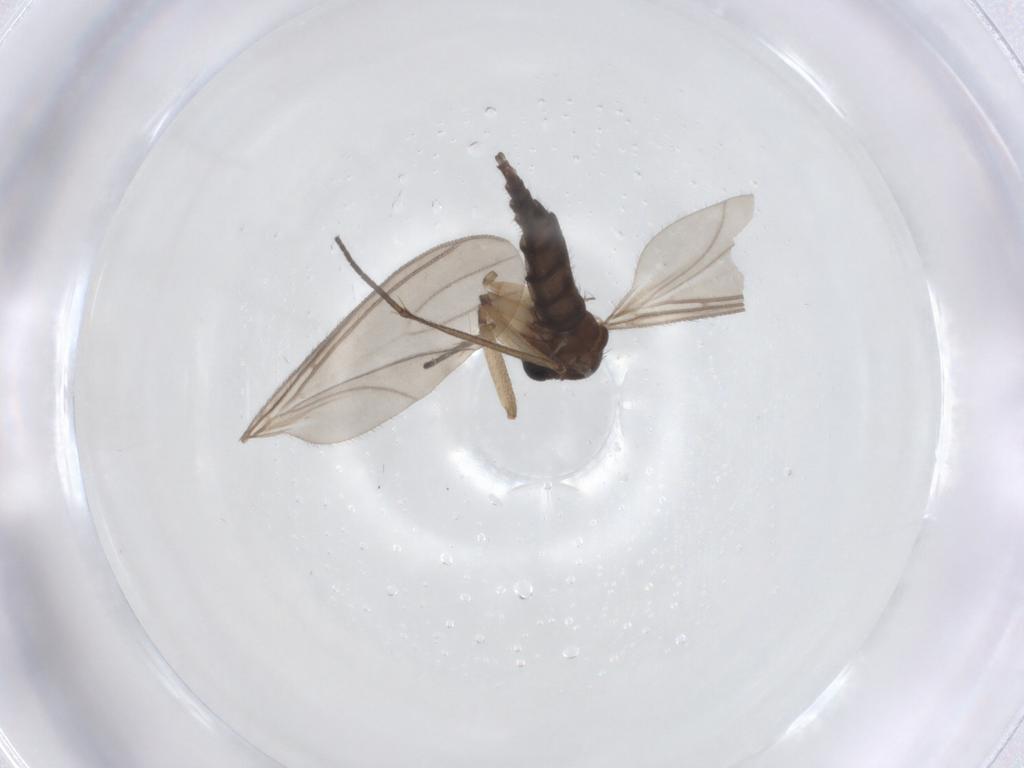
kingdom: Animalia
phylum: Arthropoda
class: Insecta
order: Diptera
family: Sciaridae
